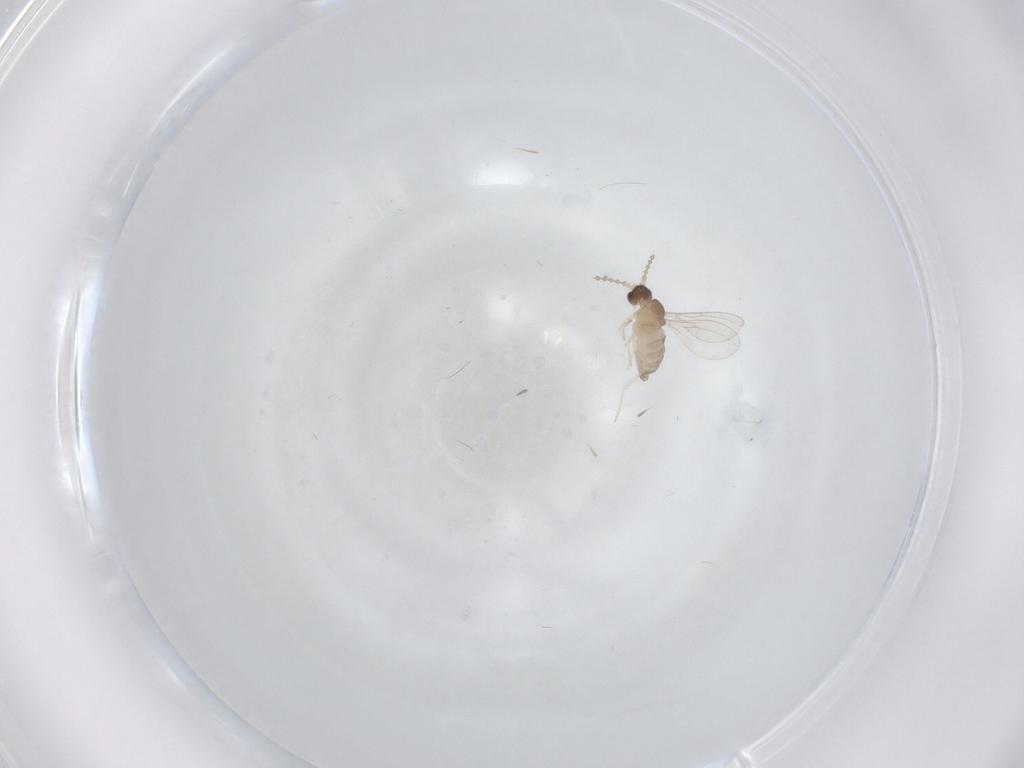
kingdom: Animalia
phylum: Arthropoda
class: Insecta
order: Diptera
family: Cecidomyiidae
